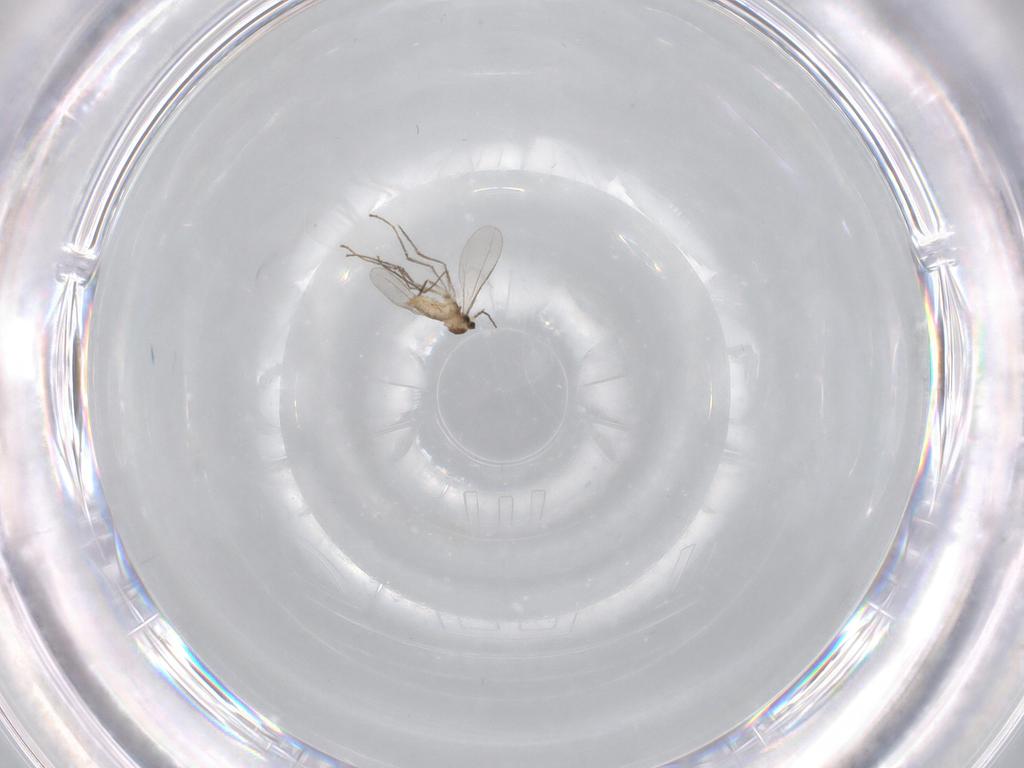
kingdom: Animalia
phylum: Arthropoda
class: Insecta
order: Diptera
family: Cecidomyiidae
